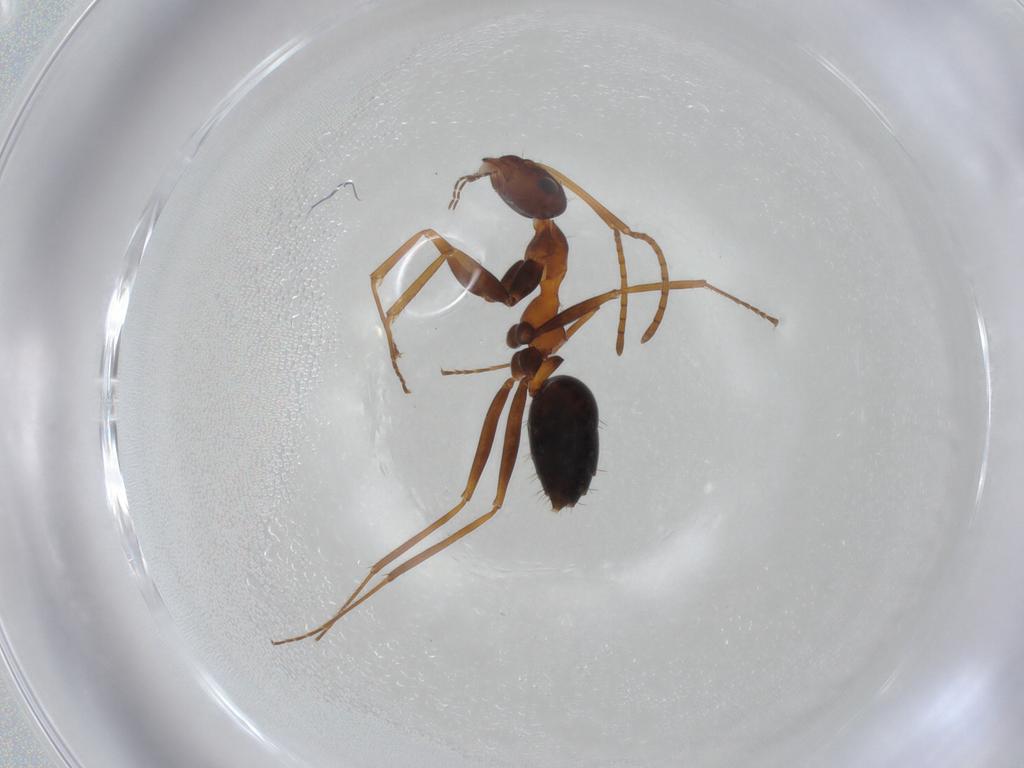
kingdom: Animalia
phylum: Arthropoda
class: Insecta
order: Hymenoptera
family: Formicidae
